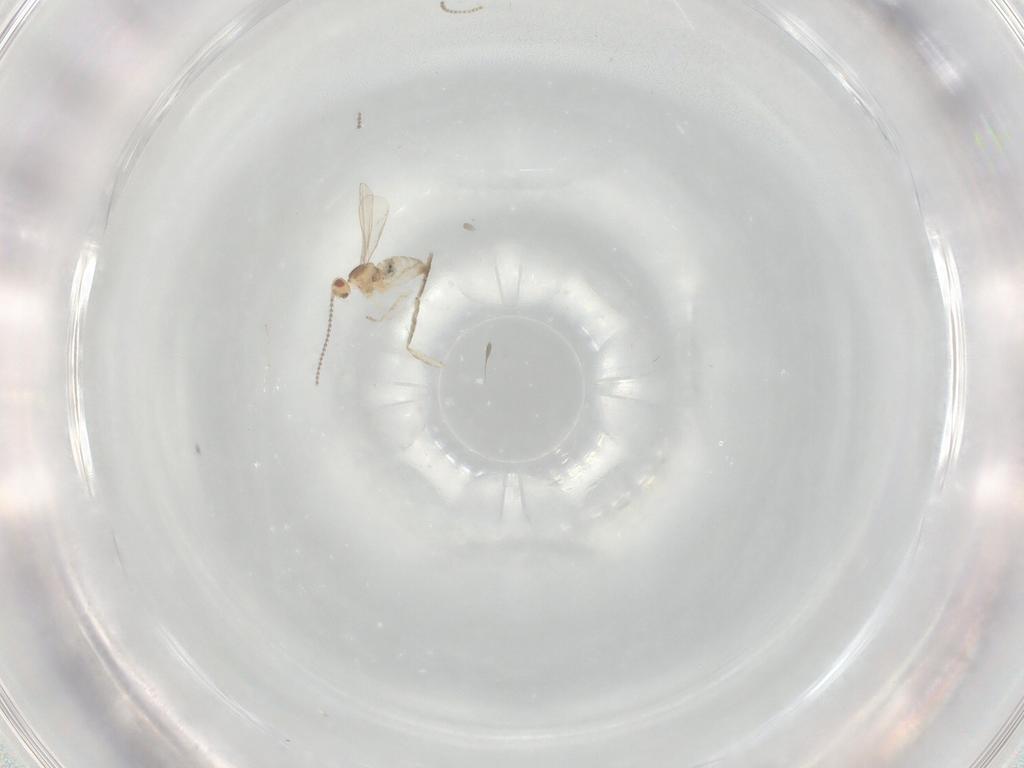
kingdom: Animalia
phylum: Arthropoda
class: Insecta
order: Diptera
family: Cecidomyiidae
